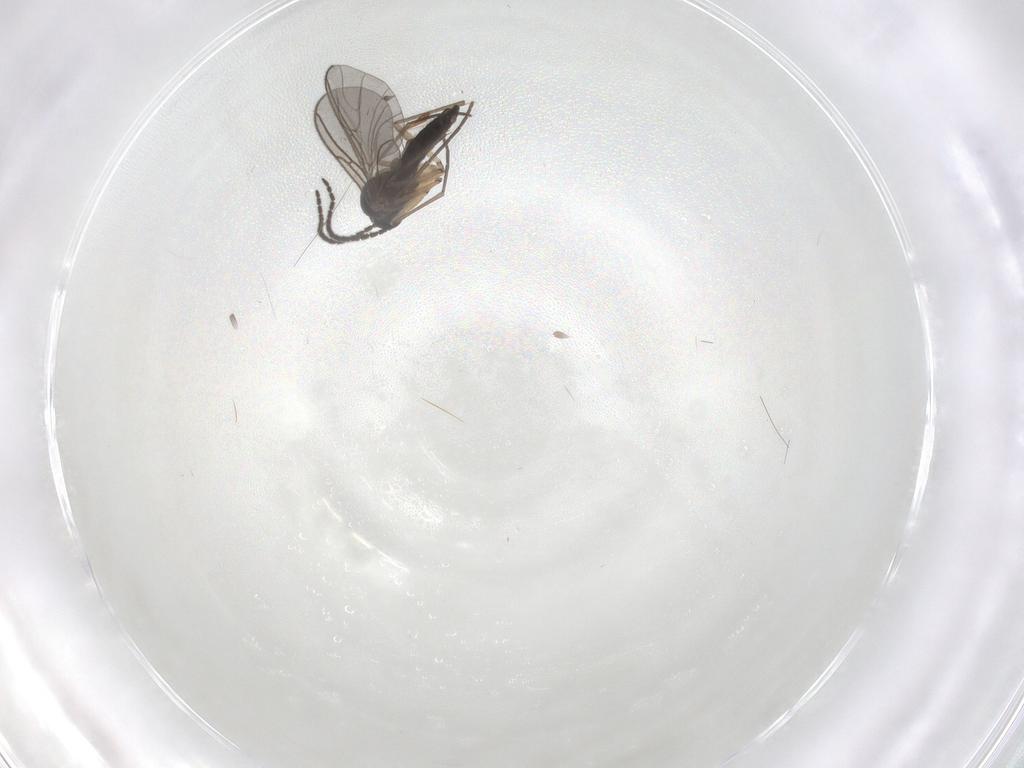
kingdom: Animalia
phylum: Arthropoda
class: Insecta
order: Diptera
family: Sciaridae
